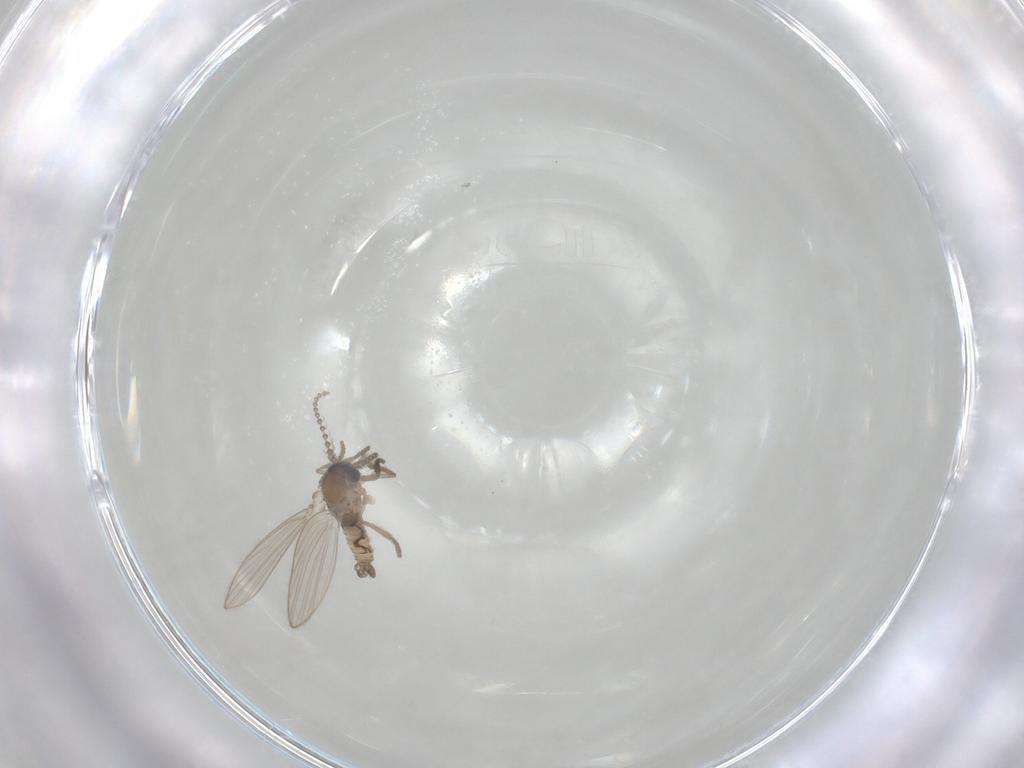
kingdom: Animalia
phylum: Arthropoda
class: Insecta
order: Diptera
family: Psychodidae
